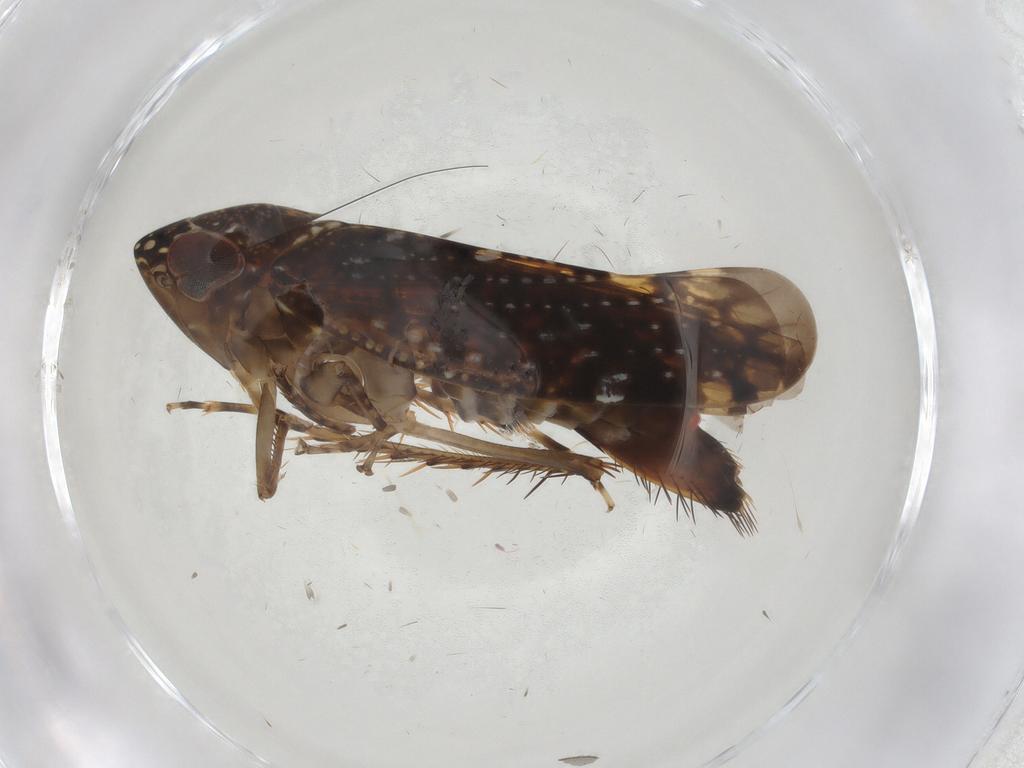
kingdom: Animalia
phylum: Arthropoda
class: Insecta
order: Hemiptera
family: Cicadellidae
